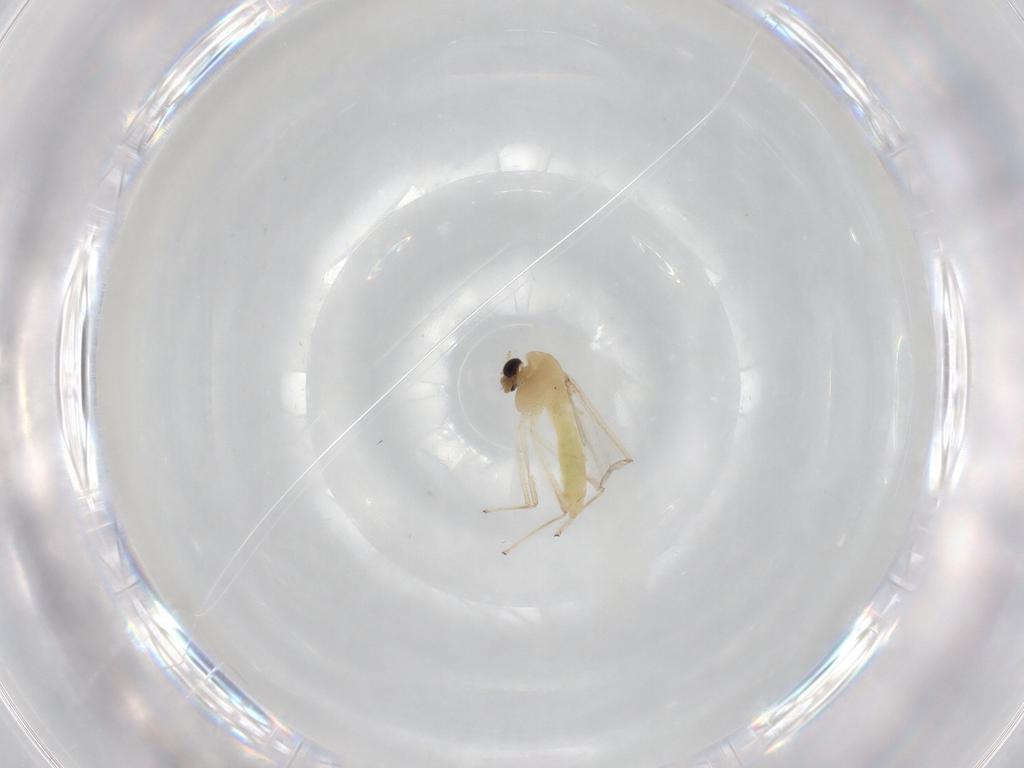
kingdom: Animalia
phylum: Arthropoda
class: Insecta
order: Diptera
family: Chironomidae
